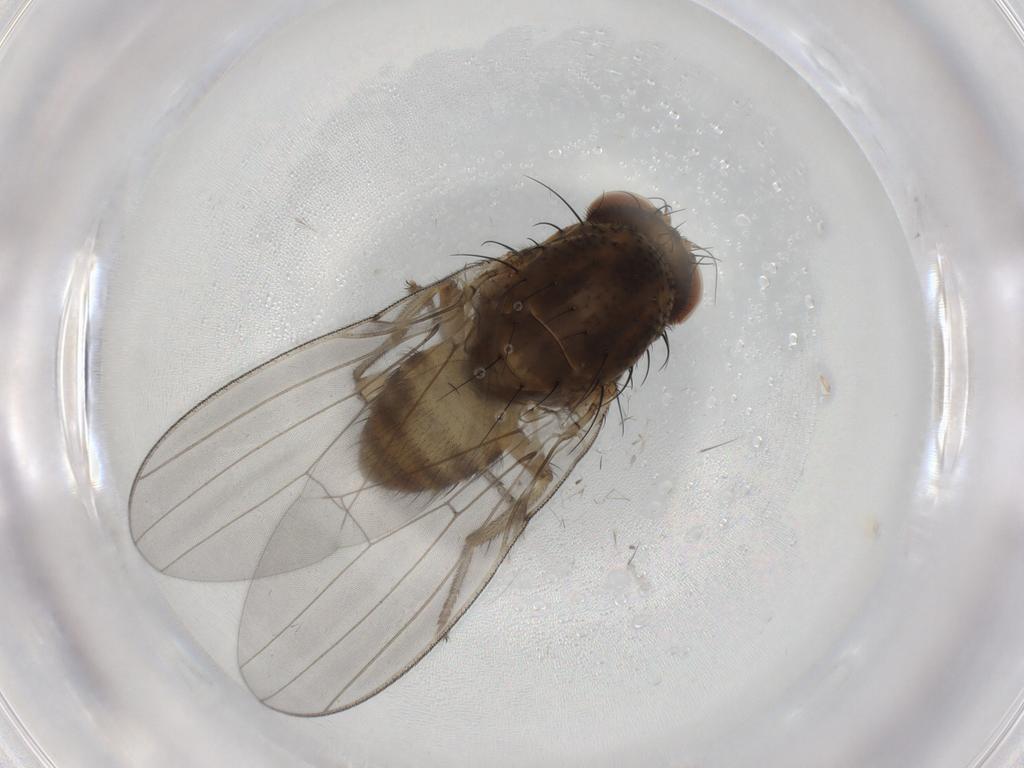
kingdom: Animalia
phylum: Arthropoda
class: Insecta
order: Diptera
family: Lauxaniidae
